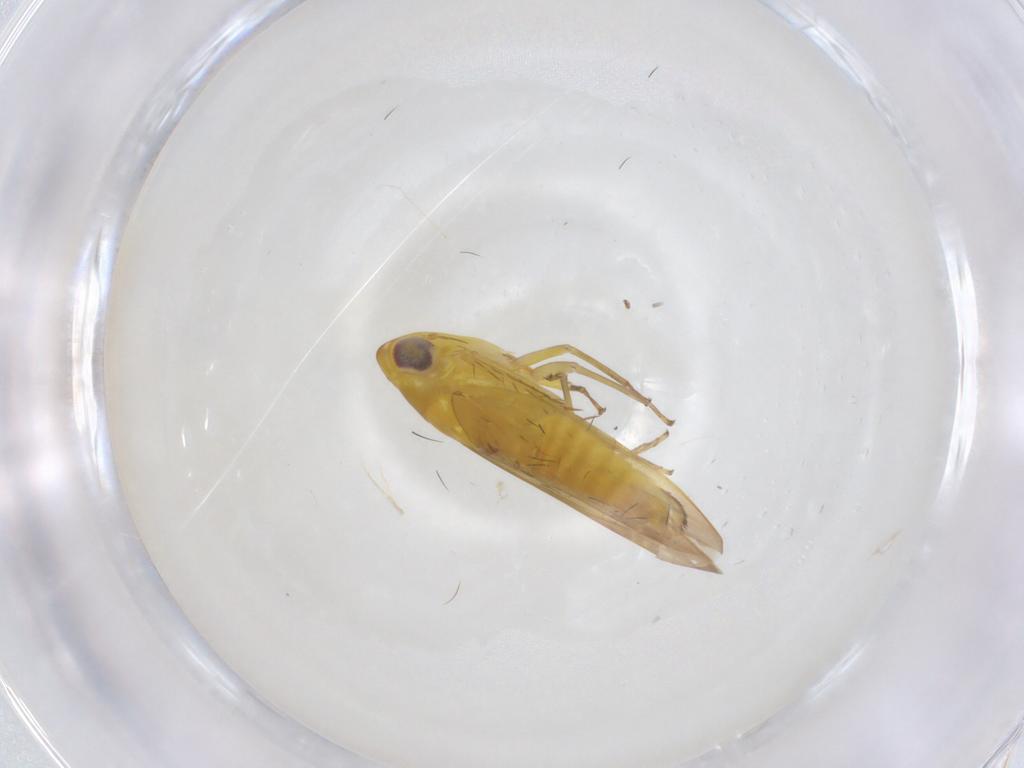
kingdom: Animalia
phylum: Arthropoda
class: Insecta
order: Hemiptera
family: Cicadellidae
